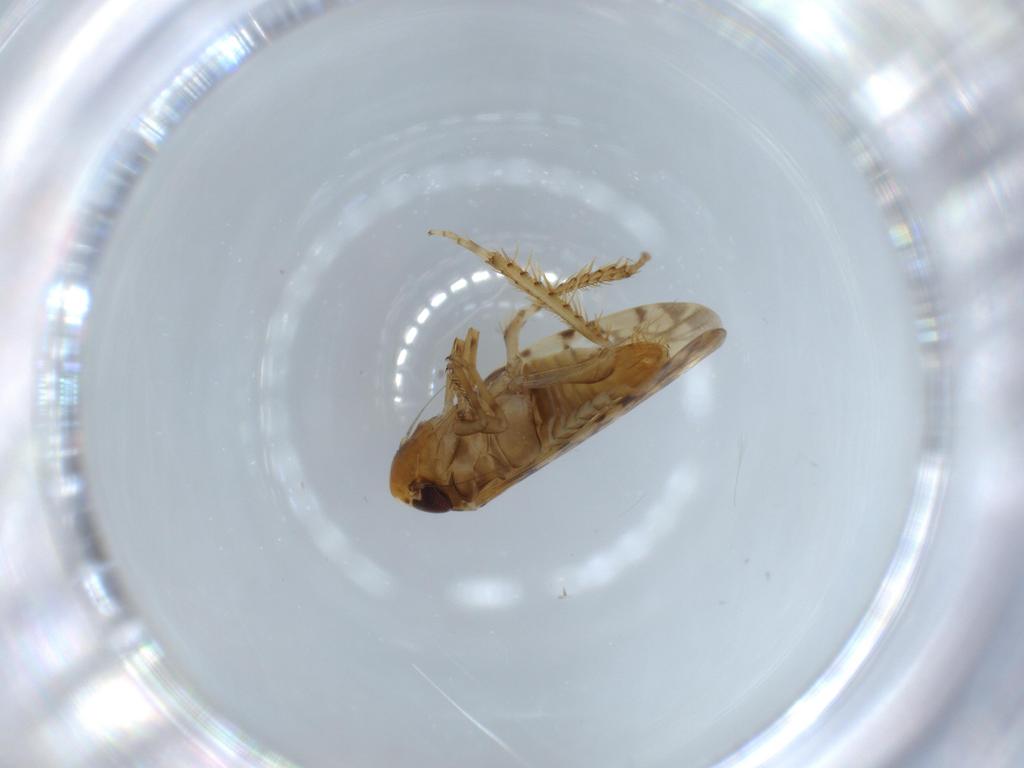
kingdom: Animalia
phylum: Arthropoda
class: Insecta
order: Hemiptera
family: Cicadellidae
